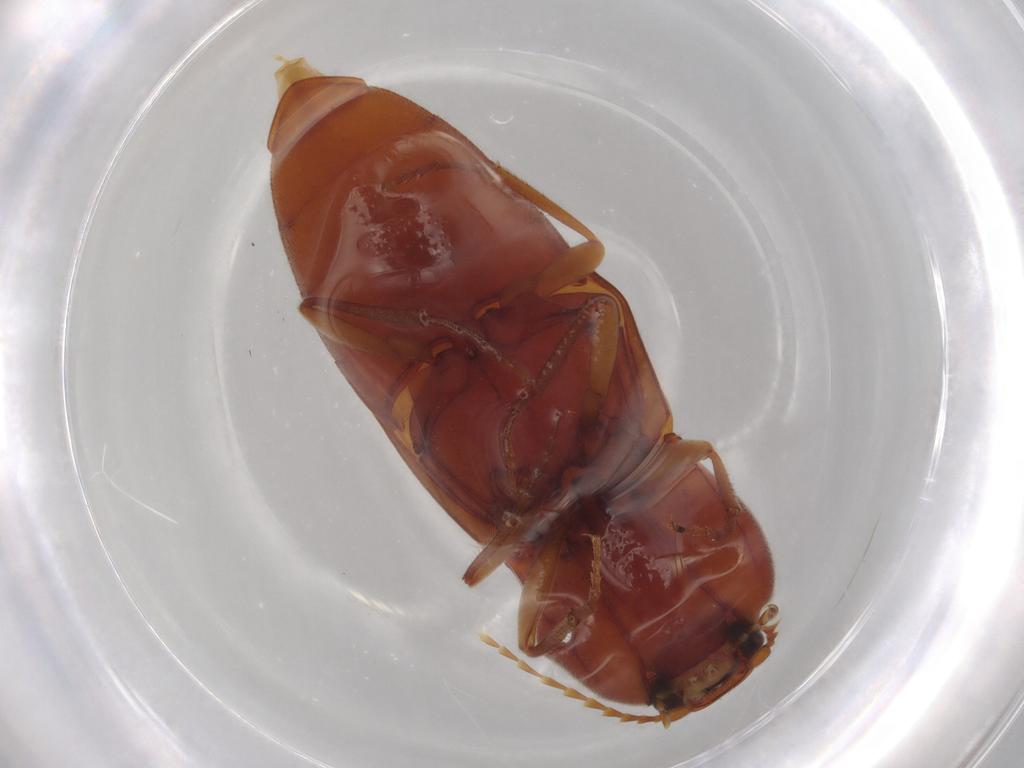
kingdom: Animalia
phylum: Arthropoda
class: Insecta
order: Coleoptera
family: Elateridae
